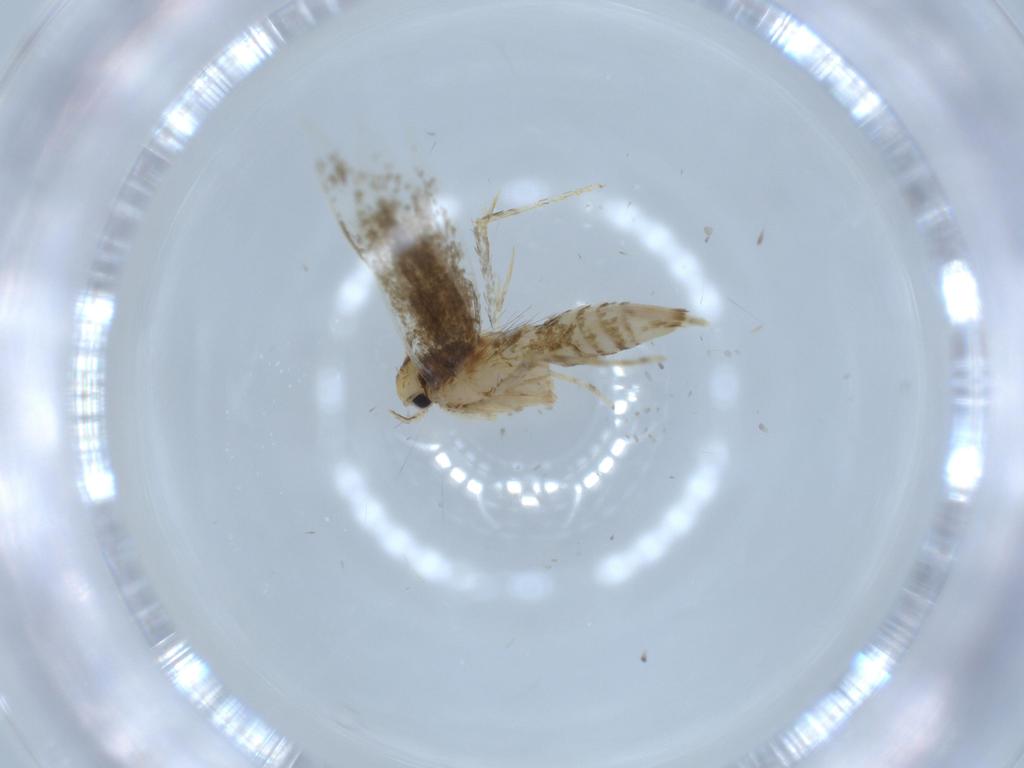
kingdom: Animalia
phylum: Arthropoda
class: Insecta
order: Lepidoptera
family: Tineidae
